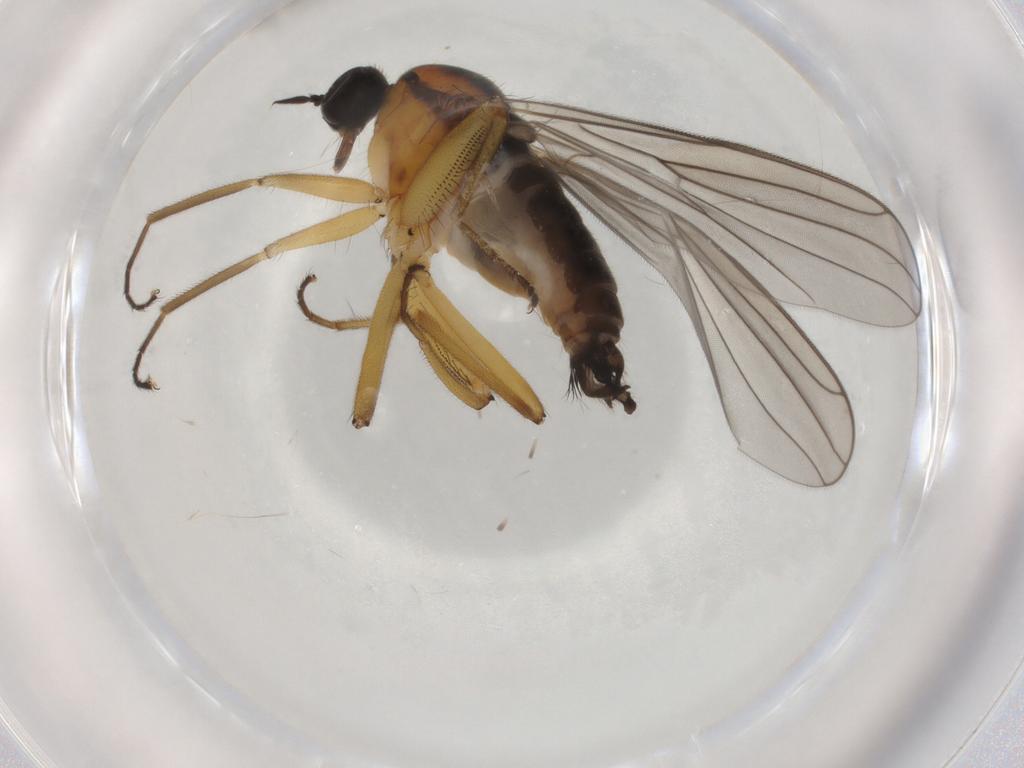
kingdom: Animalia
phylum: Arthropoda
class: Insecta
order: Diptera
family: Hybotidae
